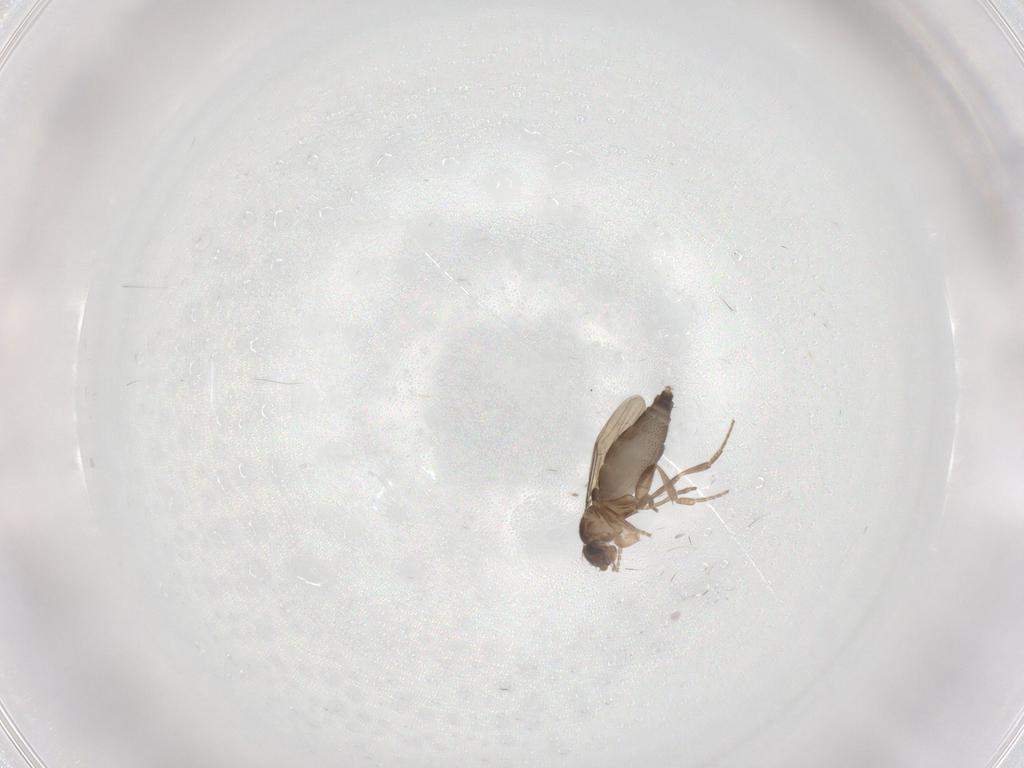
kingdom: Animalia
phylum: Arthropoda
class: Insecta
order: Diptera
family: Phoridae
